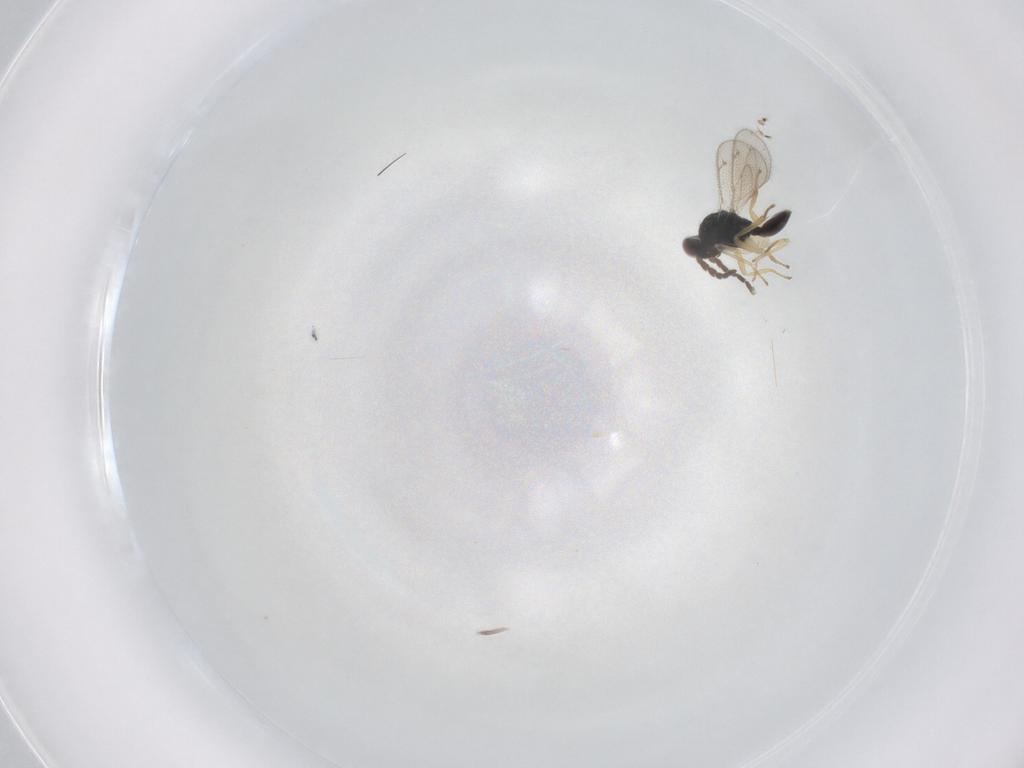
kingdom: Animalia
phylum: Arthropoda
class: Insecta
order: Hymenoptera
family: Eulophidae
